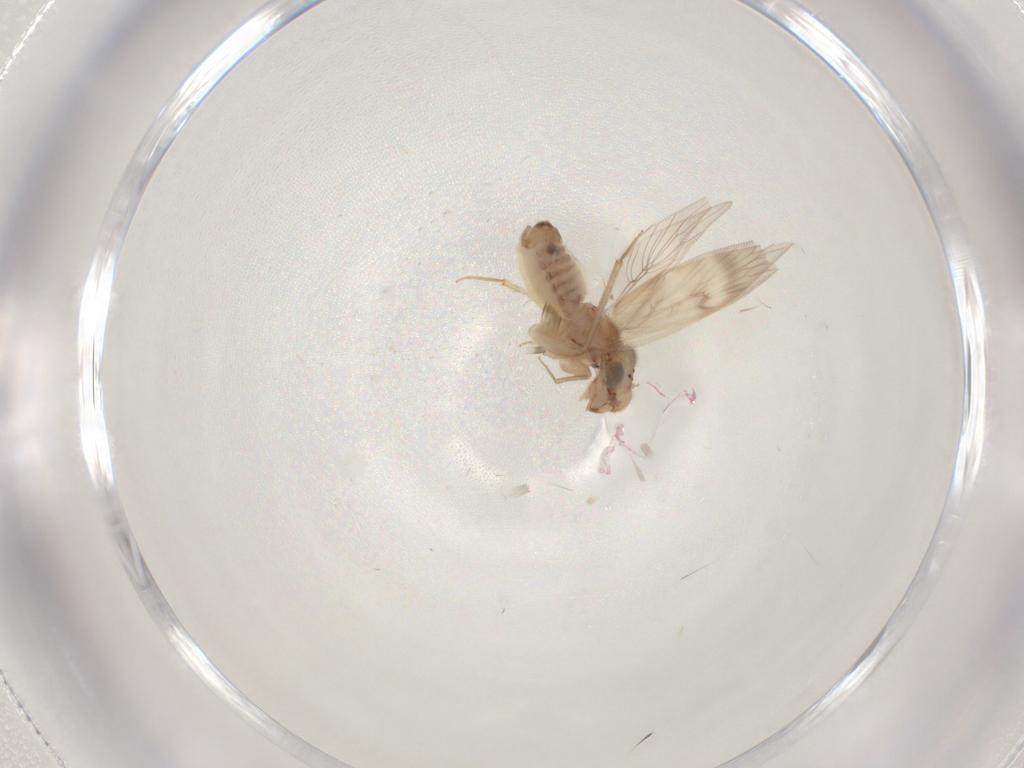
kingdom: Animalia
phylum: Arthropoda
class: Insecta
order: Psocodea
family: Lepidopsocidae
